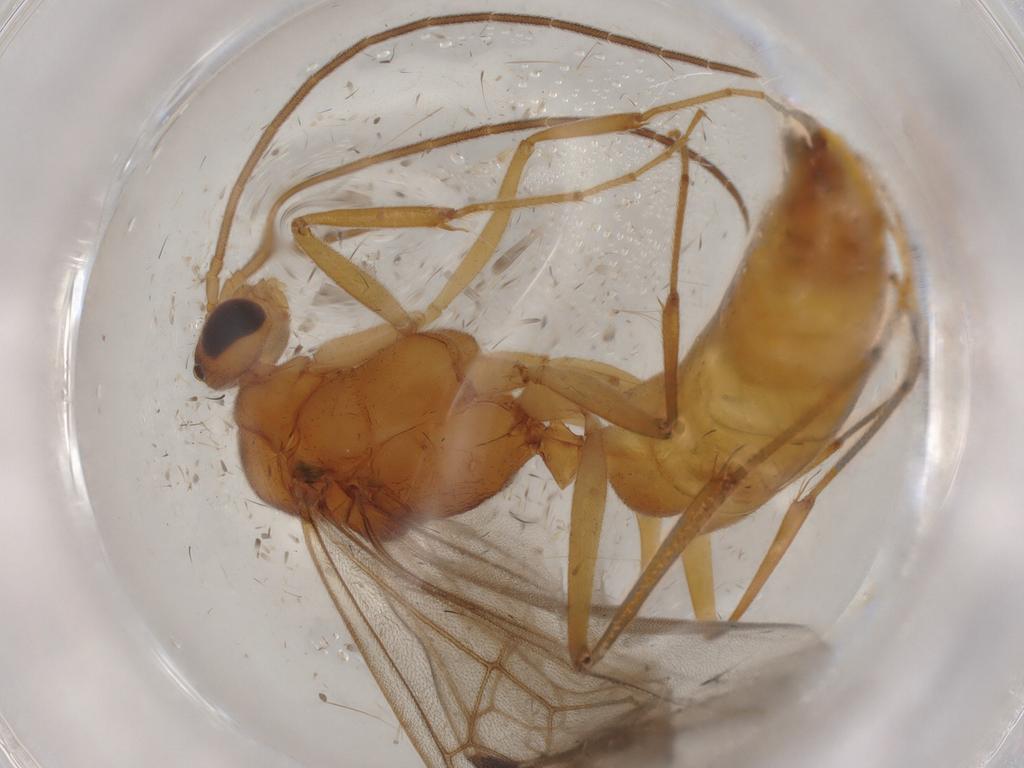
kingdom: Animalia
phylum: Arthropoda
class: Insecta
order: Hymenoptera
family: Formicidae
